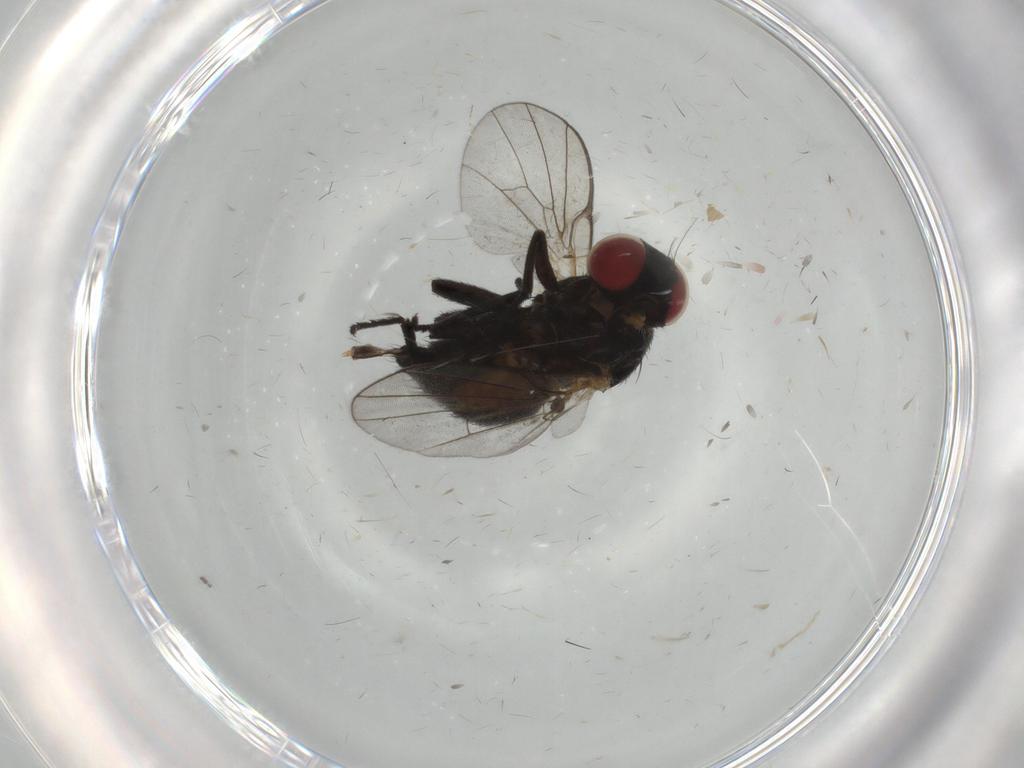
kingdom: Animalia
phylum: Arthropoda
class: Insecta
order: Diptera
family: Agromyzidae
